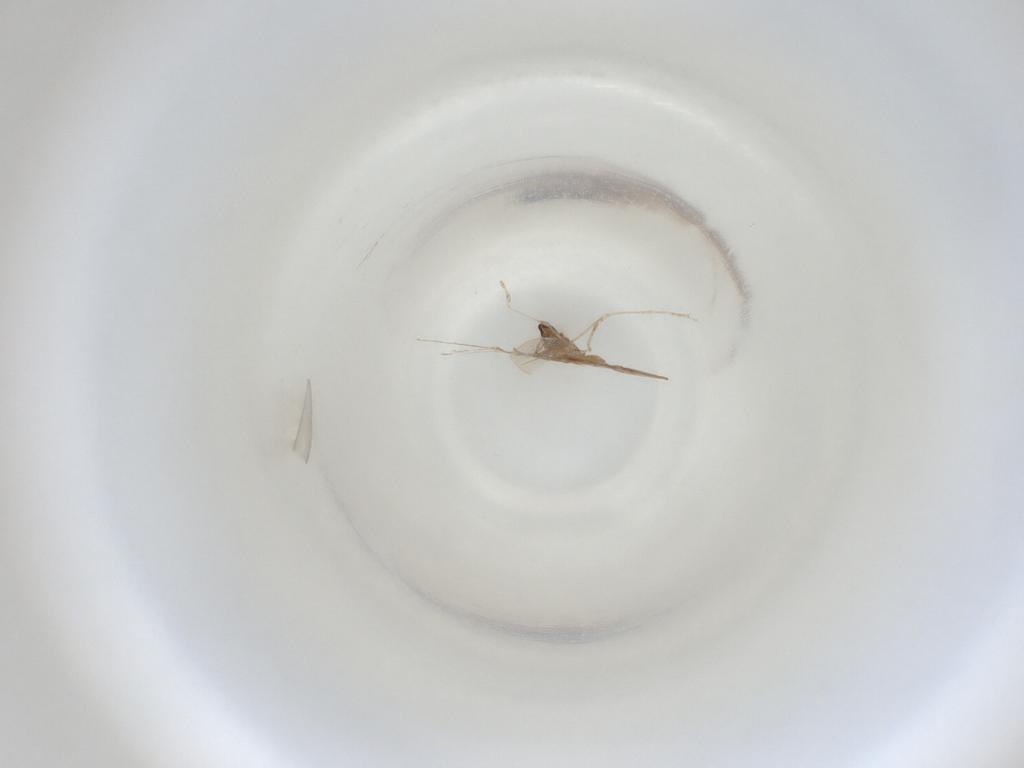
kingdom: Animalia
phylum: Arthropoda
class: Insecta
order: Diptera
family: Cecidomyiidae
